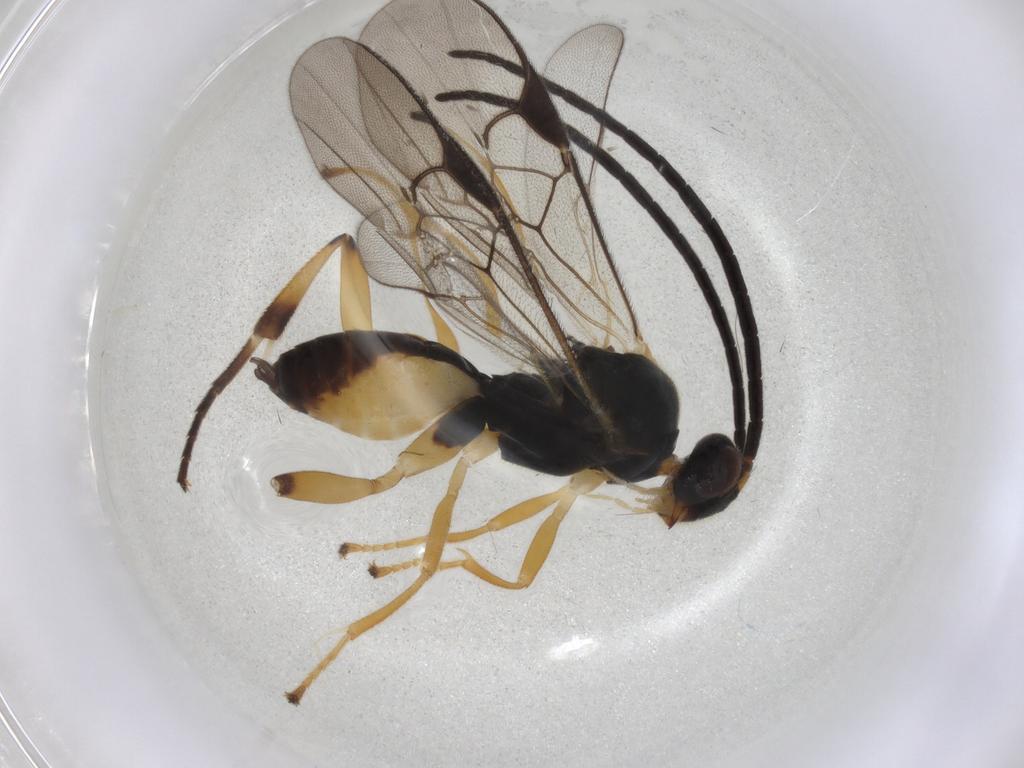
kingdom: Animalia
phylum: Arthropoda
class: Insecta
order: Hymenoptera
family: Braconidae
